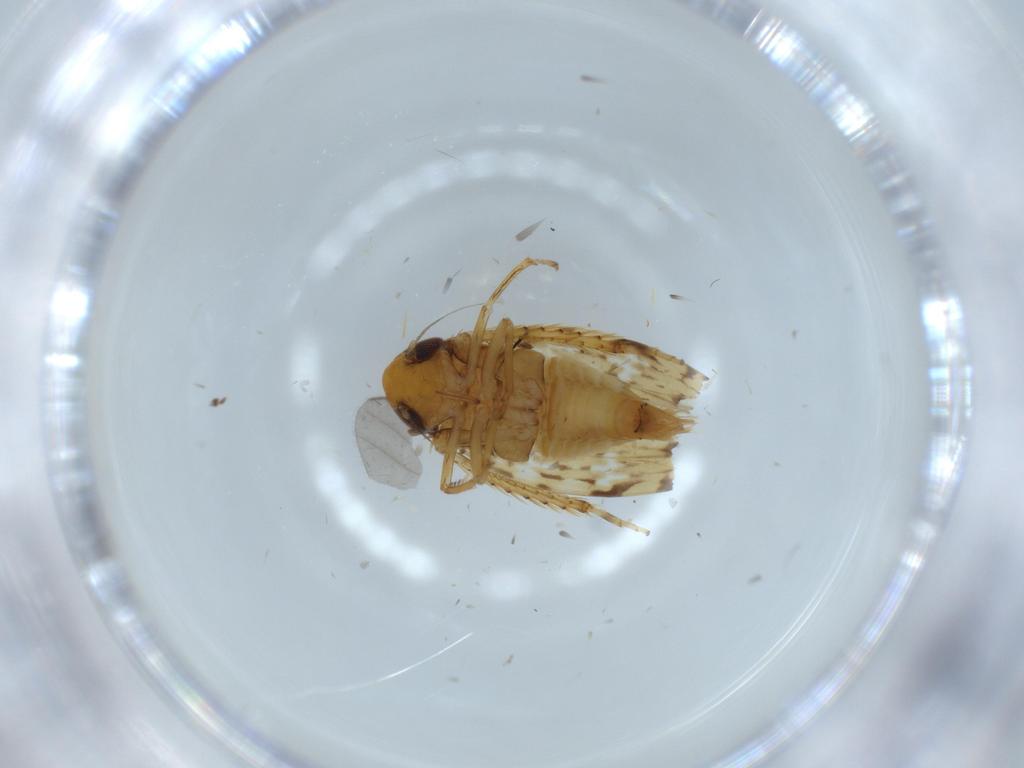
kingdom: Animalia
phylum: Arthropoda
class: Insecta
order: Hemiptera
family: Cicadellidae
